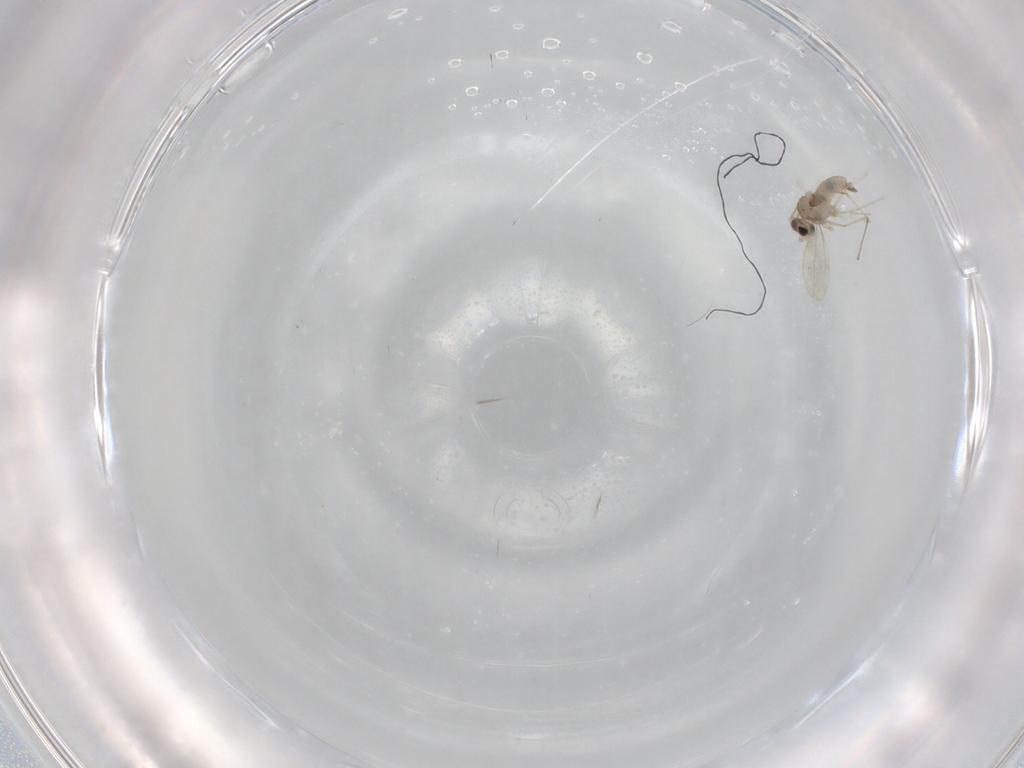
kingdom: Animalia
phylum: Arthropoda
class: Insecta
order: Diptera
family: Cecidomyiidae
